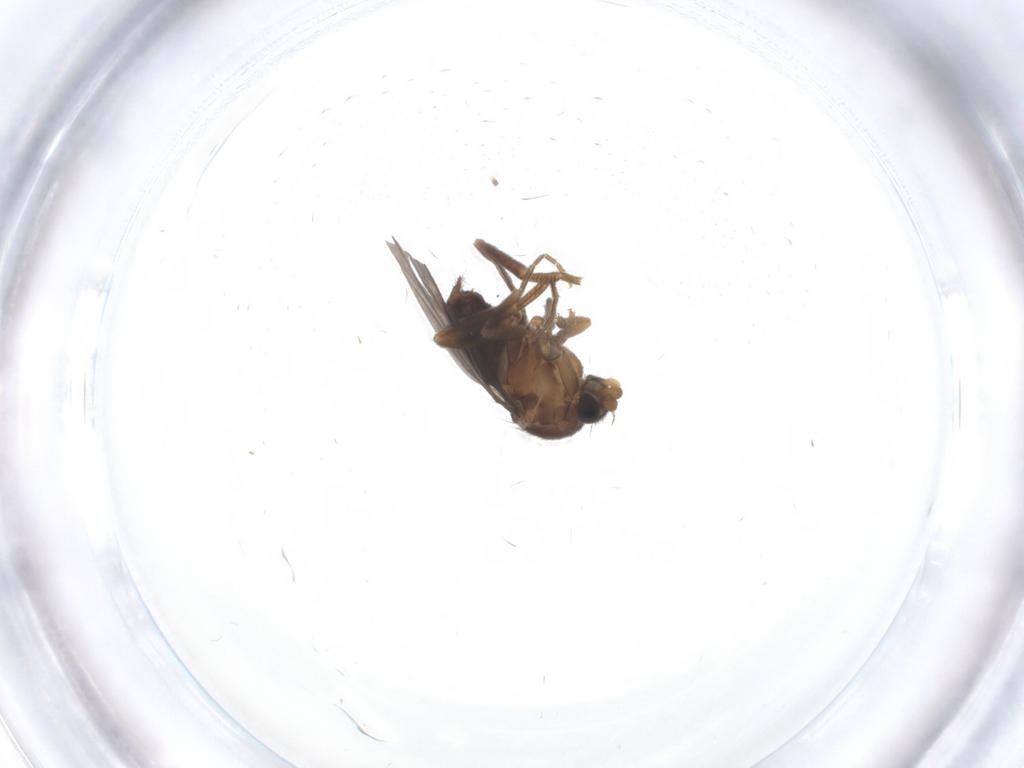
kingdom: Animalia
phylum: Arthropoda
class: Insecta
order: Diptera
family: Phoridae
